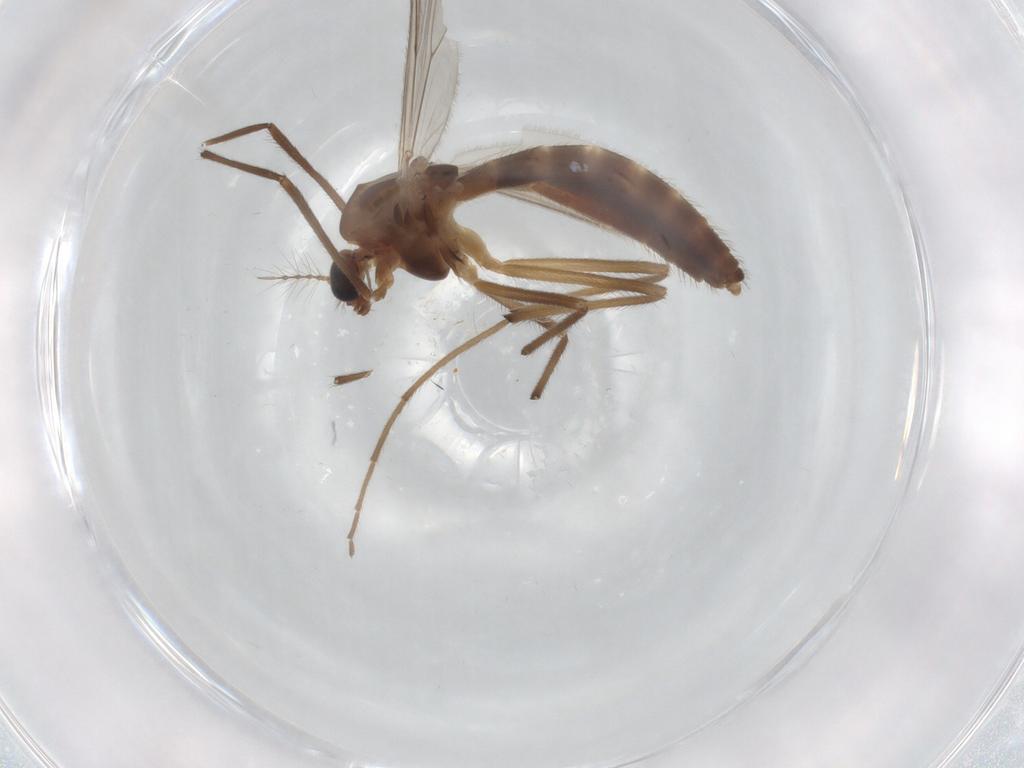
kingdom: Animalia
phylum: Arthropoda
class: Insecta
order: Diptera
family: Chironomidae
